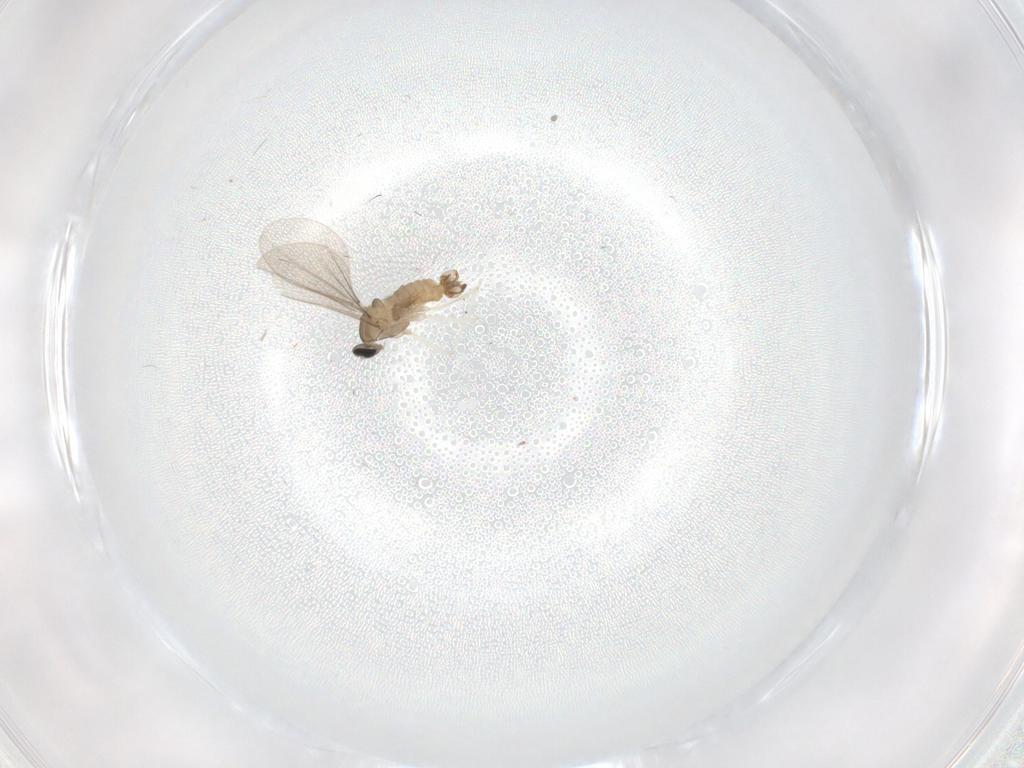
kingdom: Animalia
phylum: Arthropoda
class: Insecta
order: Diptera
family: Cecidomyiidae
